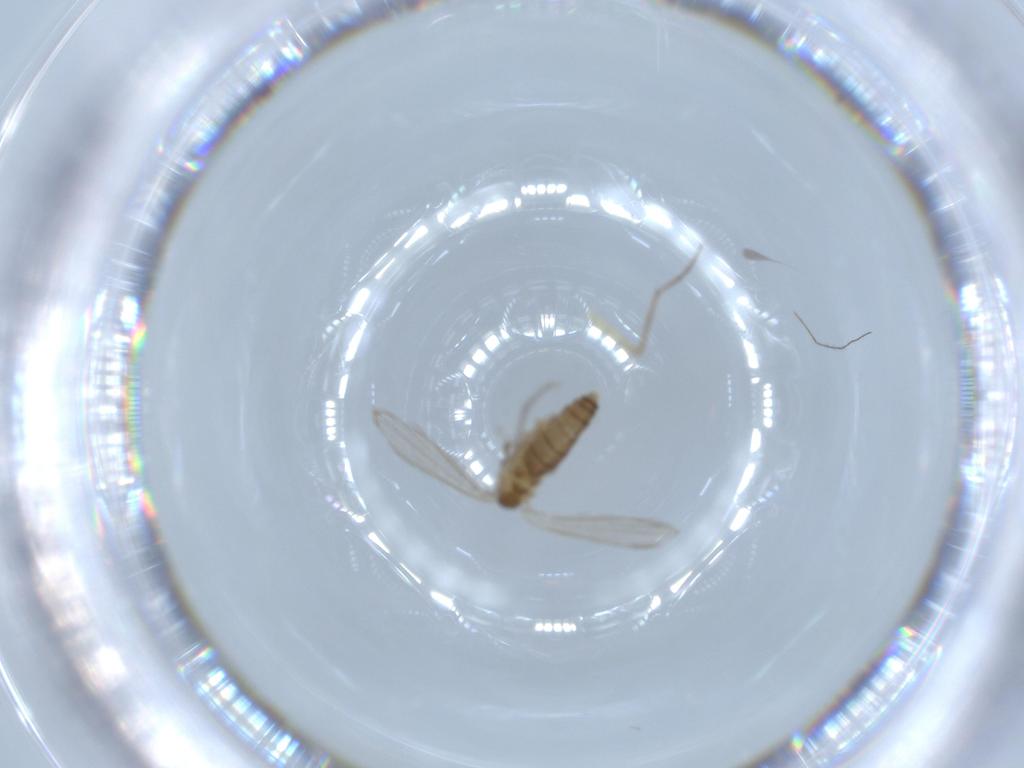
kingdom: Animalia
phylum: Arthropoda
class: Insecta
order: Diptera
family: Psychodidae
